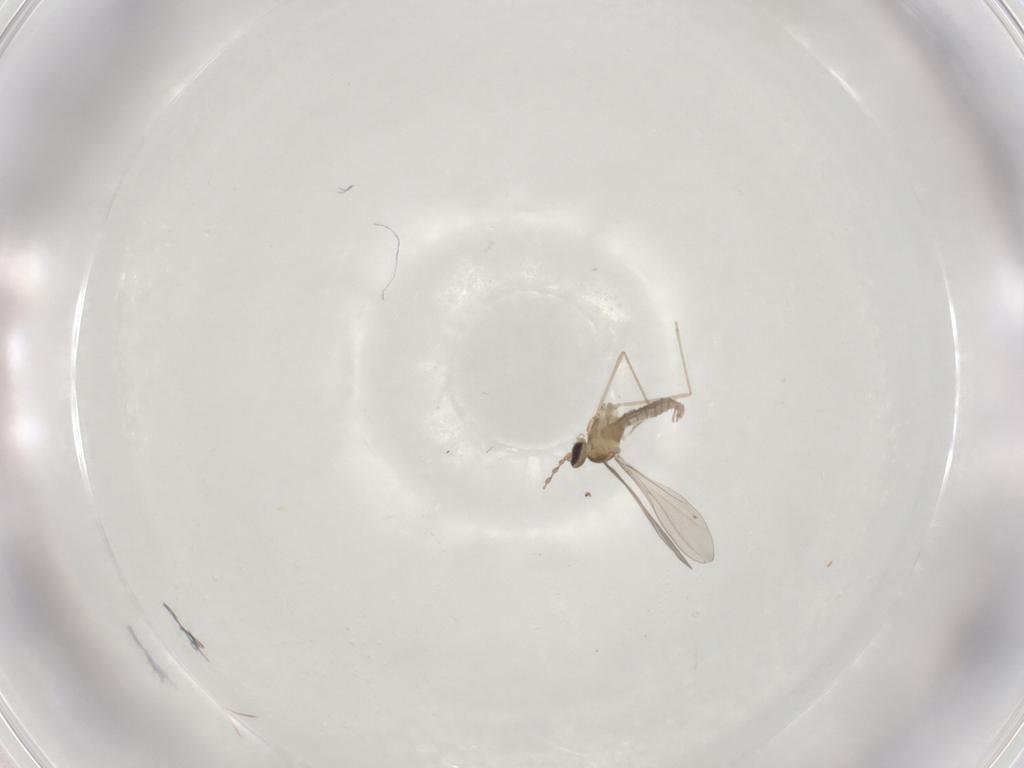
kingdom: Animalia
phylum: Arthropoda
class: Insecta
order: Diptera
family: Cecidomyiidae
